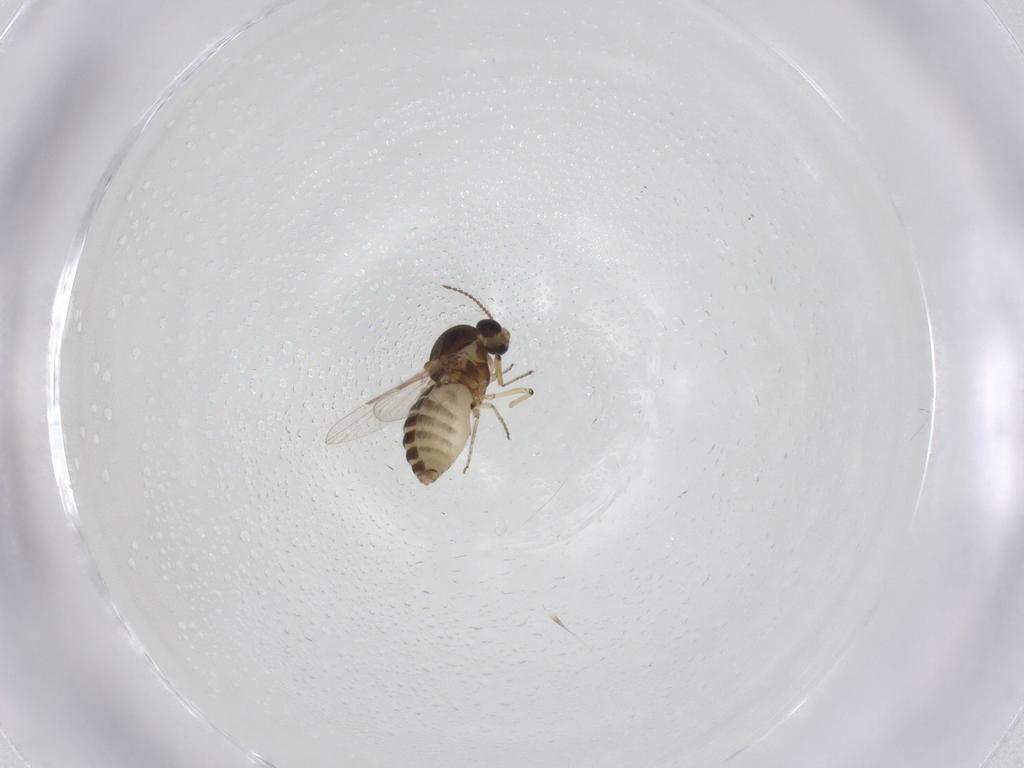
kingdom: Animalia
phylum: Arthropoda
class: Insecta
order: Diptera
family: Ceratopogonidae
